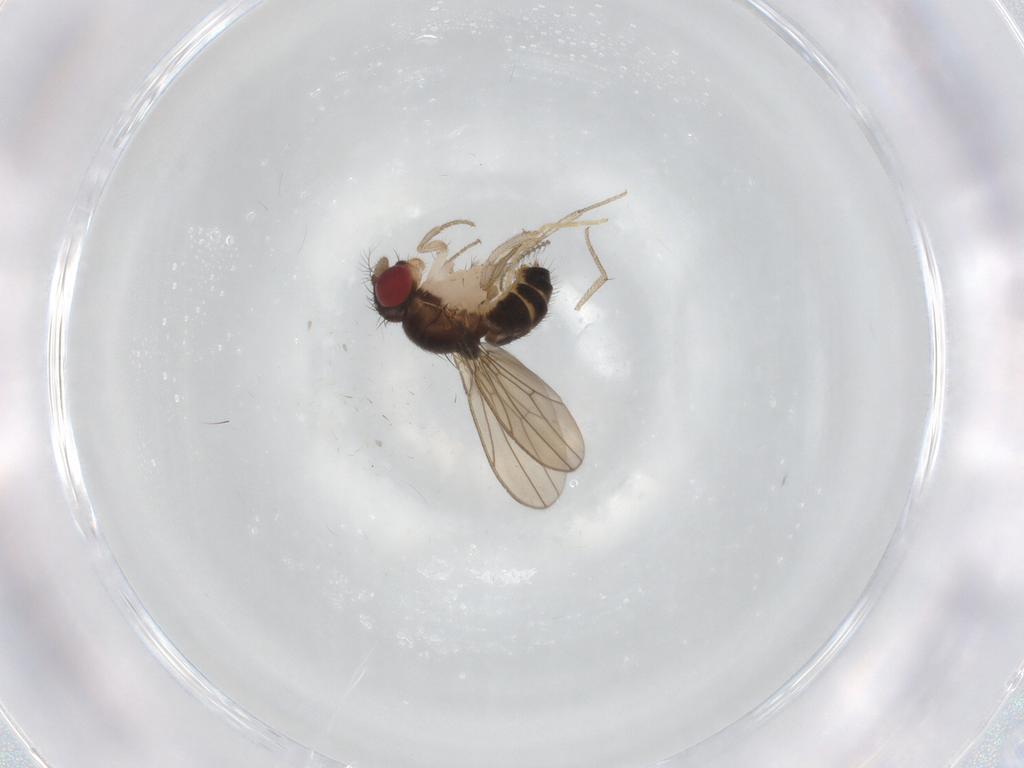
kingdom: Animalia
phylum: Arthropoda
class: Insecta
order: Diptera
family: Drosophilidae
